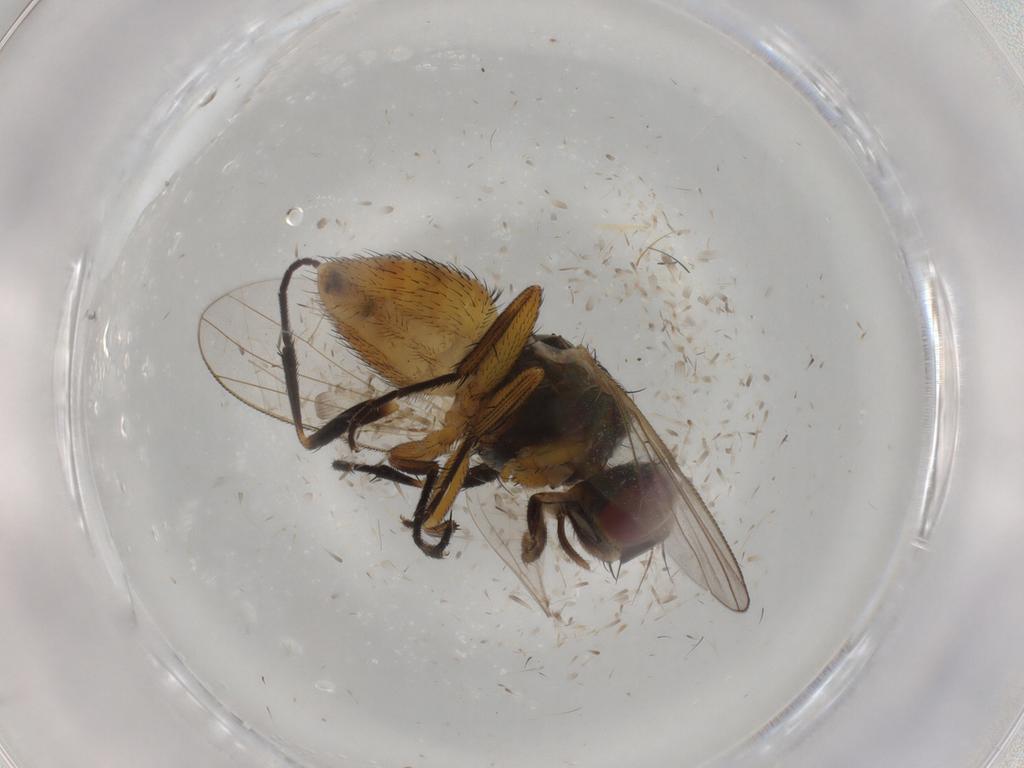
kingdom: Animalia
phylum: Arthropoda
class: Insecta
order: Diptera
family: Muscidae
